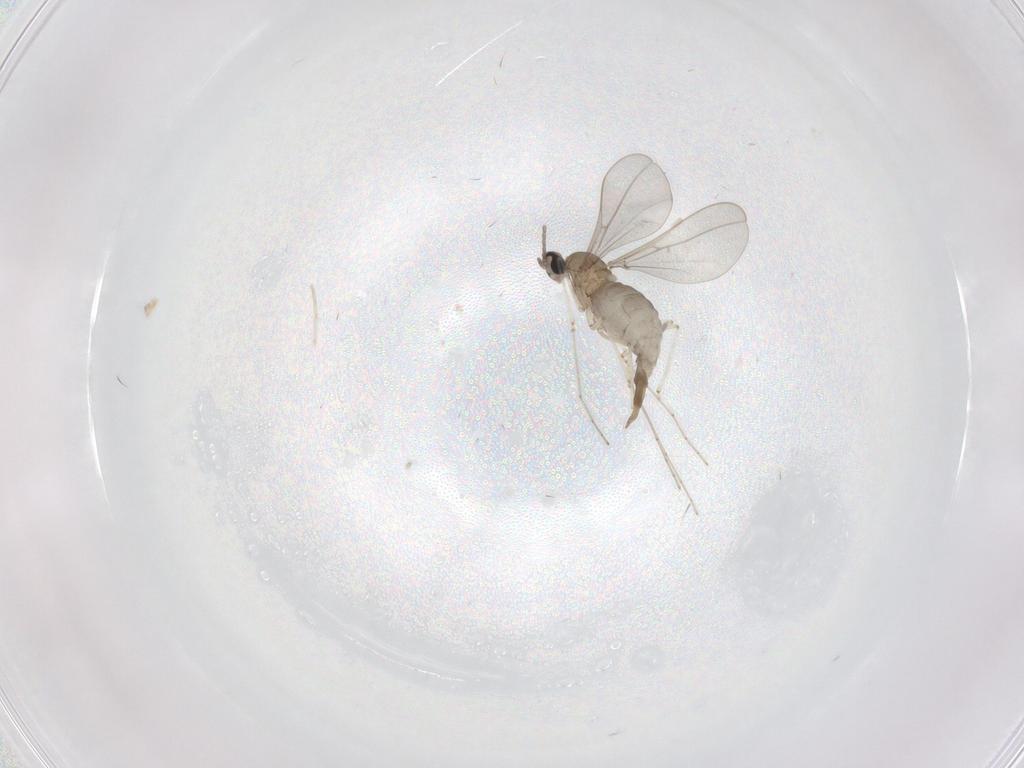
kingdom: Animalia
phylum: Arthropoda
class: Insecta
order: Diptera
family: Cecidomyiidae
